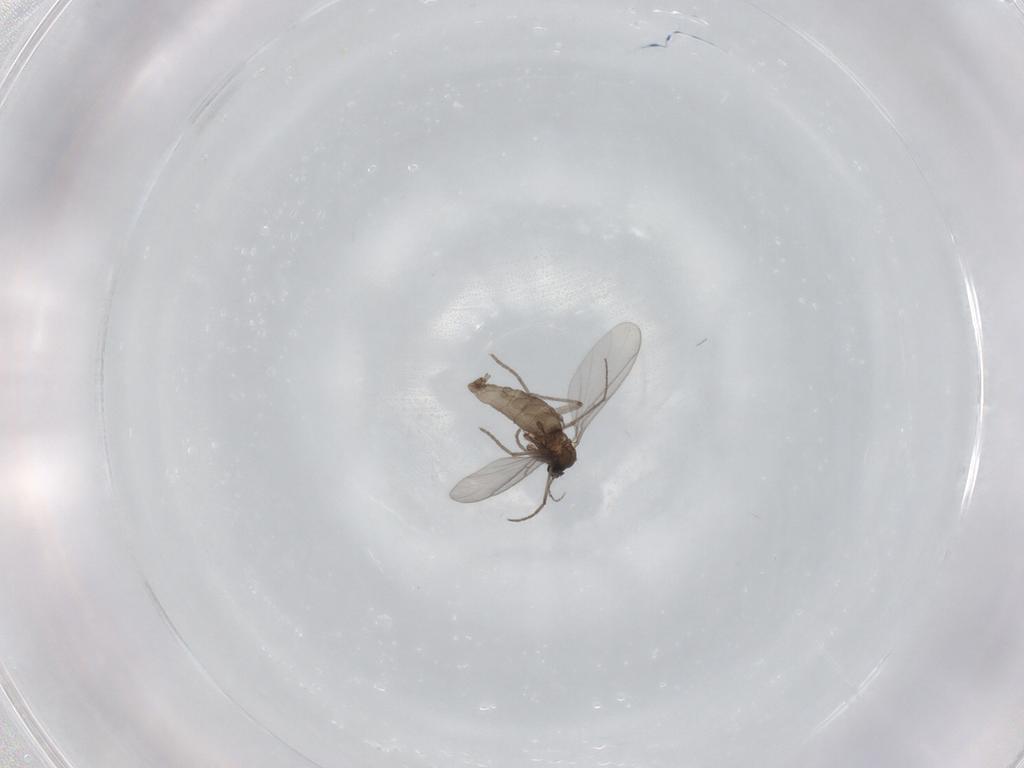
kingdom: Animalia
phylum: Arthropoda
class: Insecta
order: Diptera
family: Sciaridae
